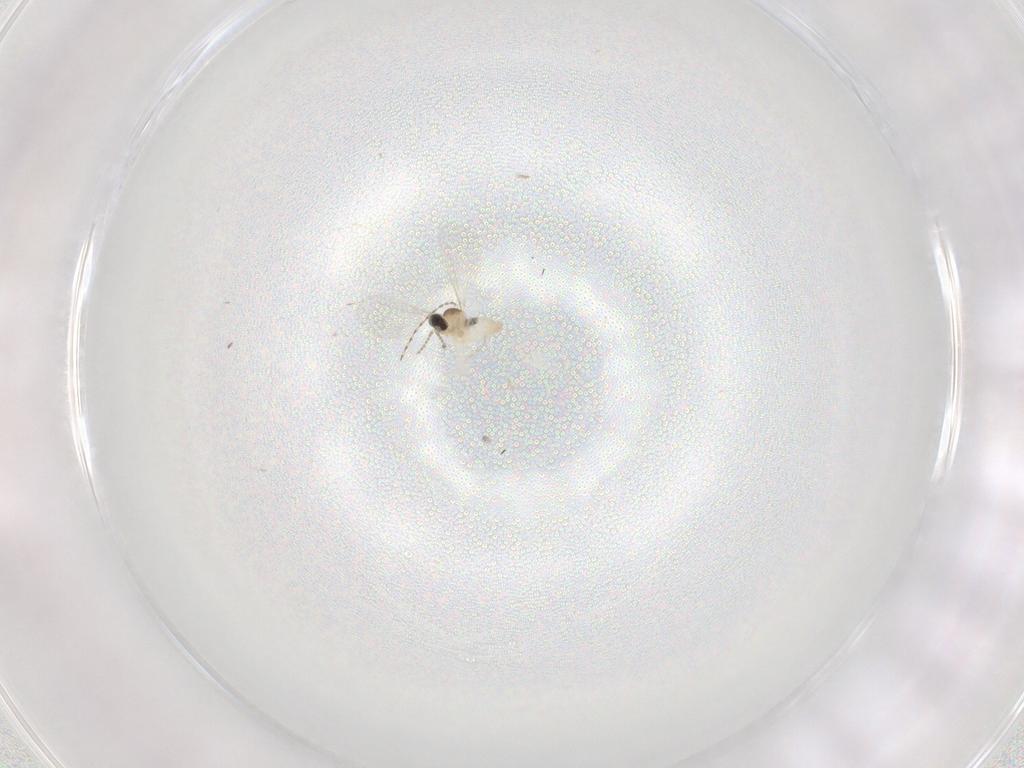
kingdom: Animalia
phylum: Arthropoda
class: Insecta
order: Diptera
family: Cecidomyiidae
